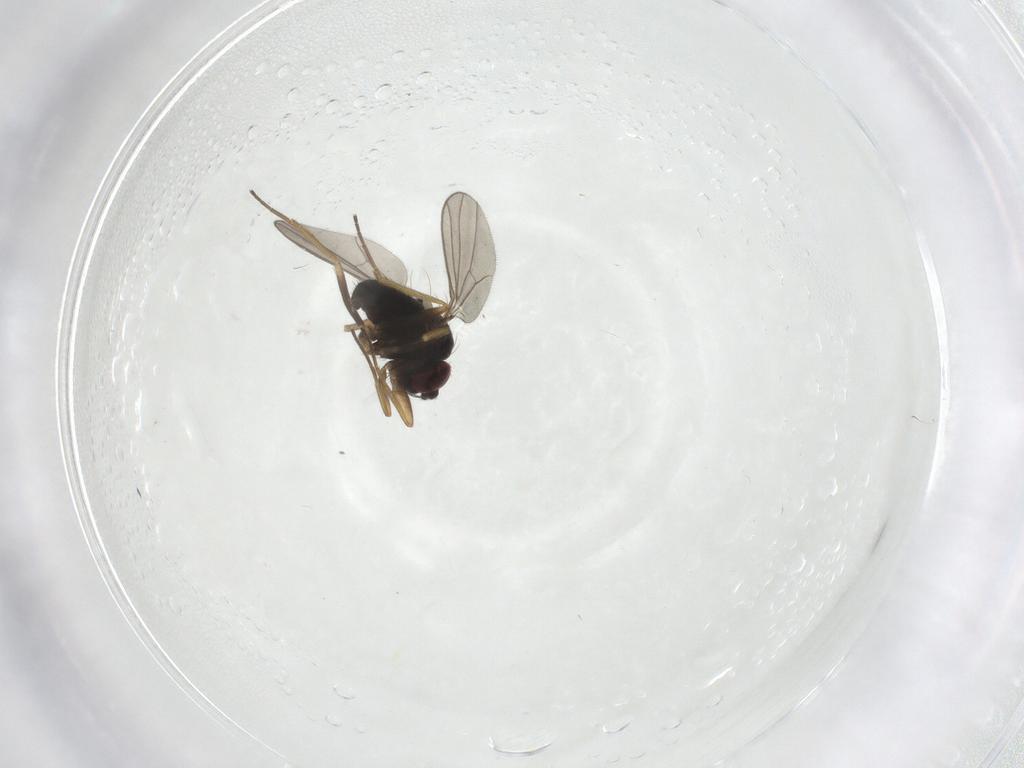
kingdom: Animalia
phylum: Arthropoda
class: Insecta
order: Diptera
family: Dolichopodidae
